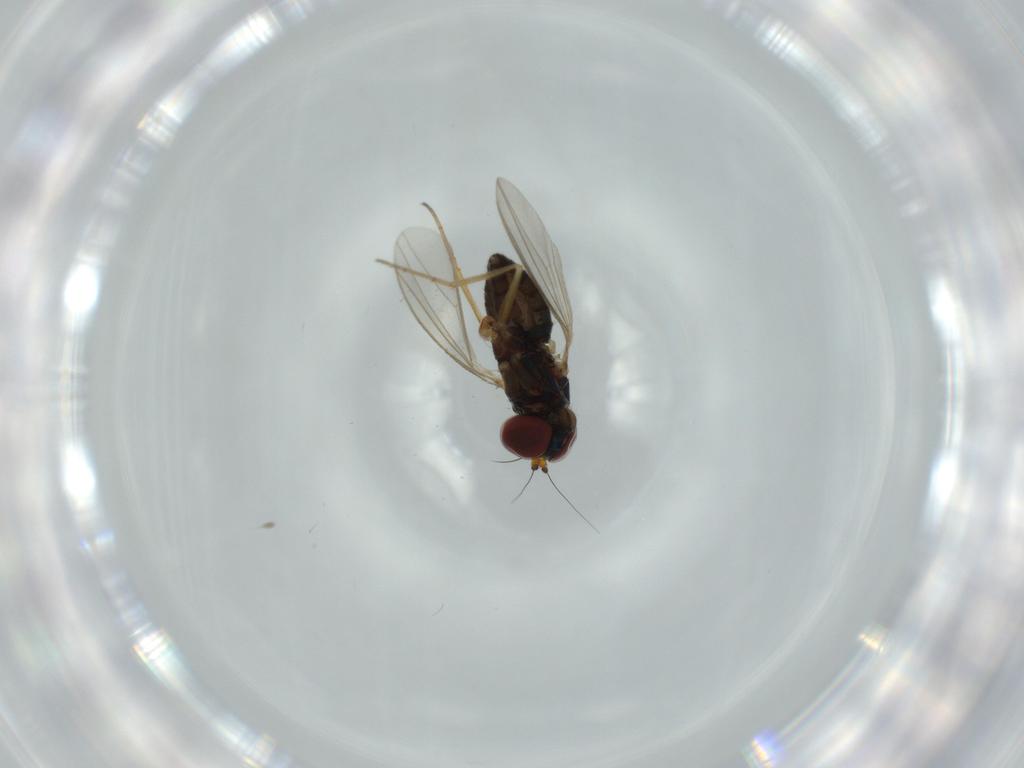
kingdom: Animalia
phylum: Arthropoda
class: Insecta
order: Diptera
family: Dolichopodidae
